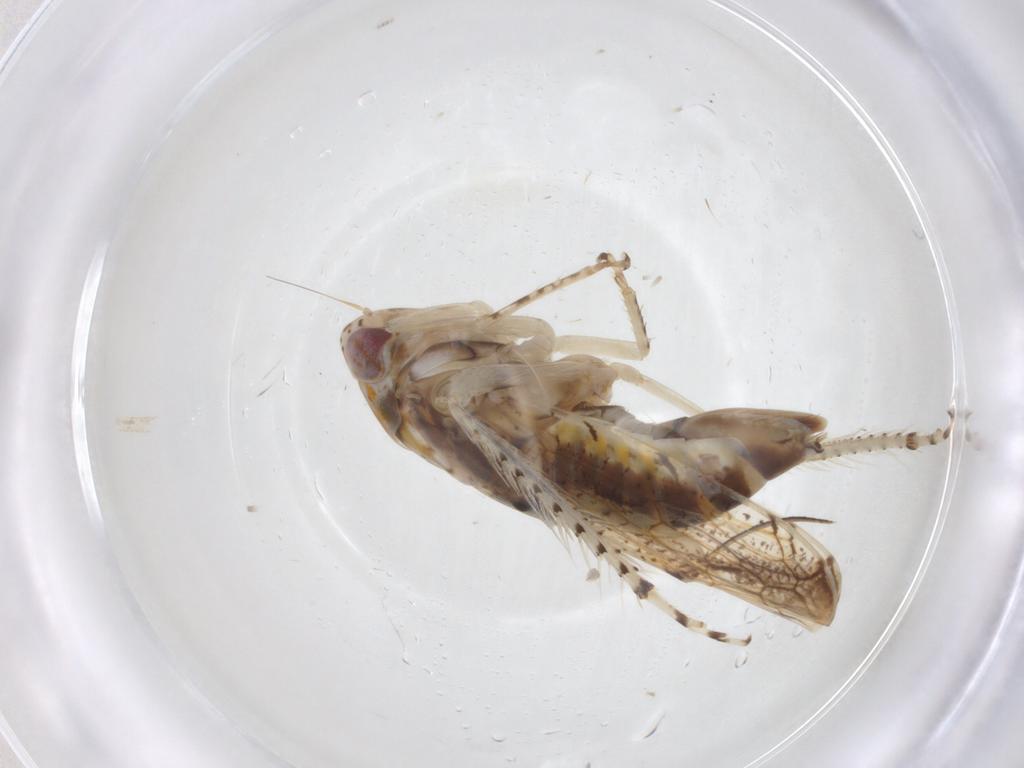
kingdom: Animalia
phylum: Arthropoda
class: Insecta
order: Hemiptera
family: Cicadellidae
